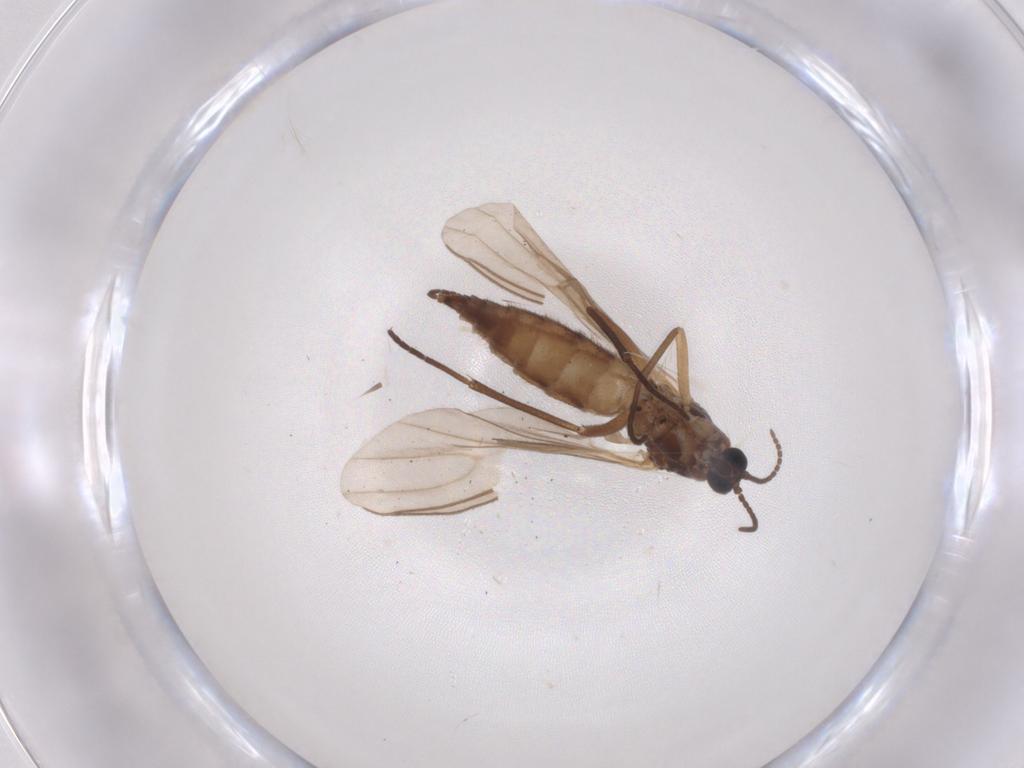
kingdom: Animalia
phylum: Arthropoda
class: Insecta
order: Diptera
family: Sciaridae
